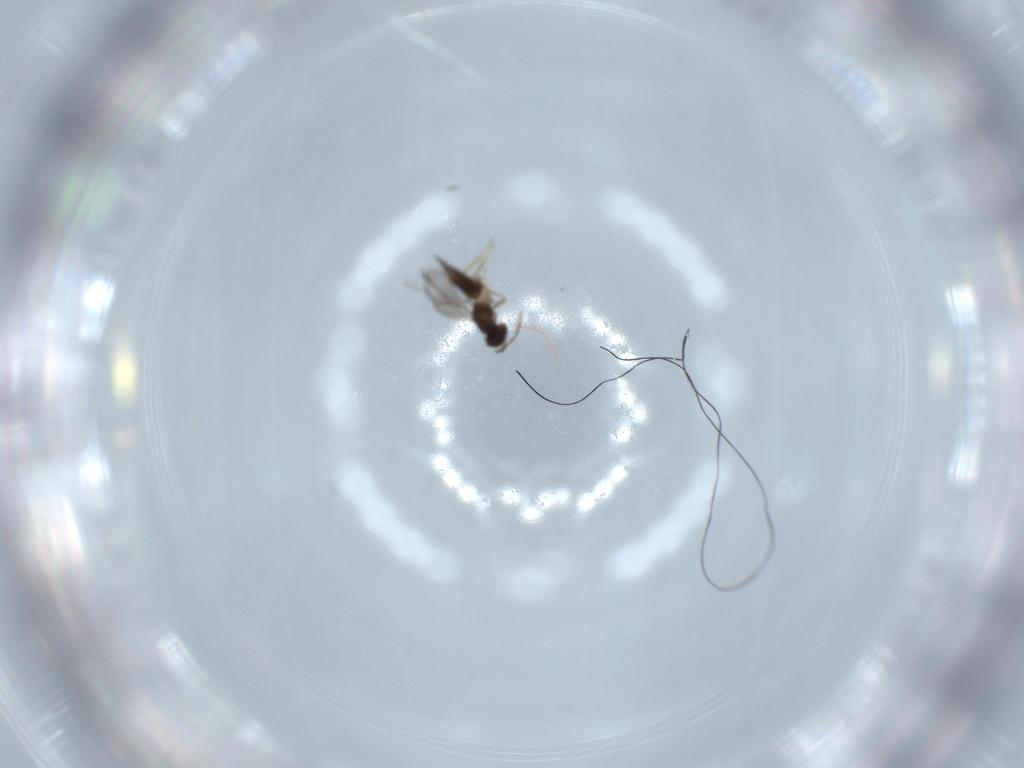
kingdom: Animalia
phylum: Arthropoda
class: Insecta
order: Hymenoptera
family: Eulophidae
